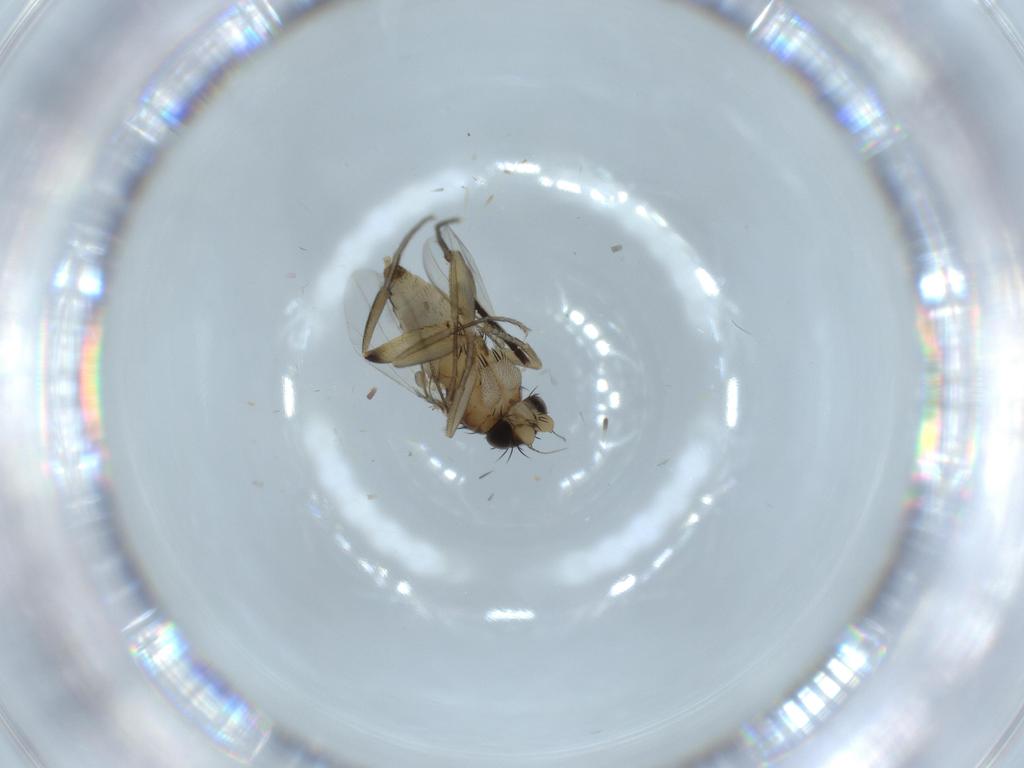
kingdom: Animalia
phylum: Arthropoda
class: Insecta
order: Diptera
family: Phoridae
